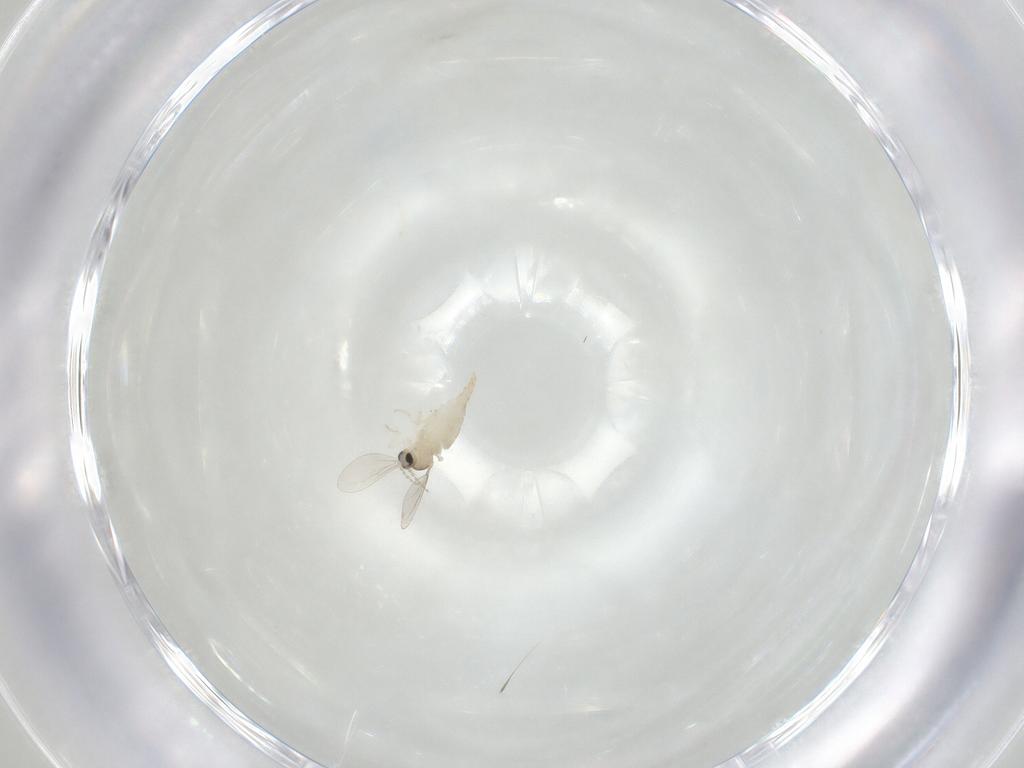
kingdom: Animalia
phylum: Arthropoda
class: Insecta
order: Diptera
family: Cecidomyiidae
